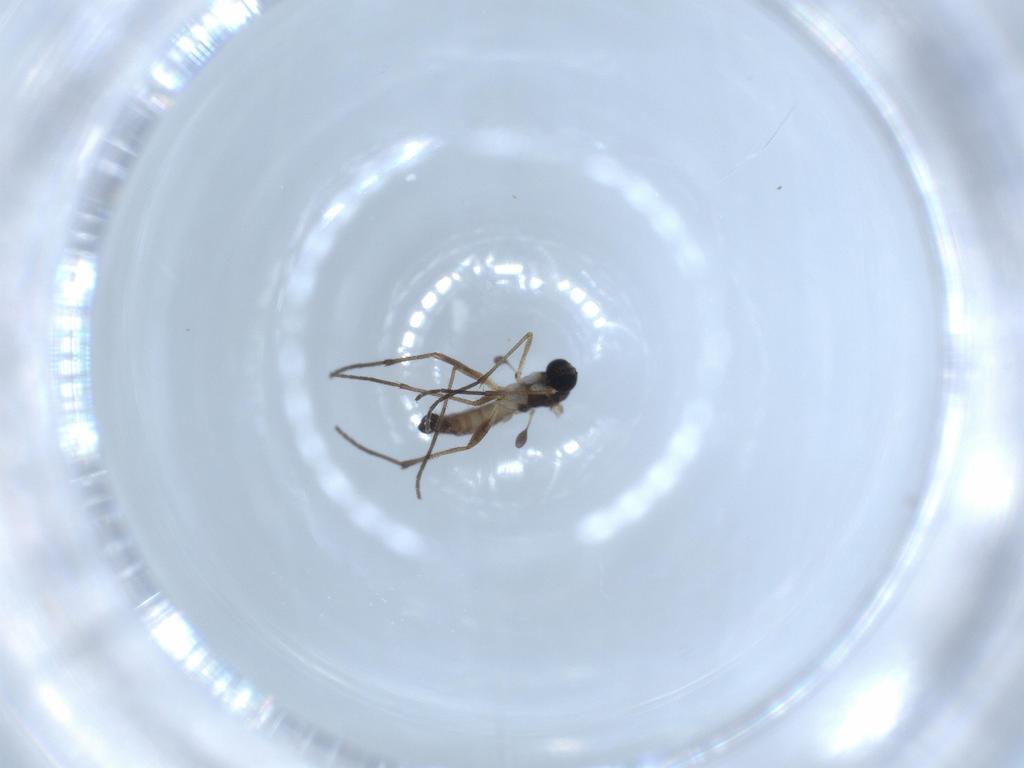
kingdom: Animalia
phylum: Arthropoda
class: Insecta
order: Diptera
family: Sciaridae
